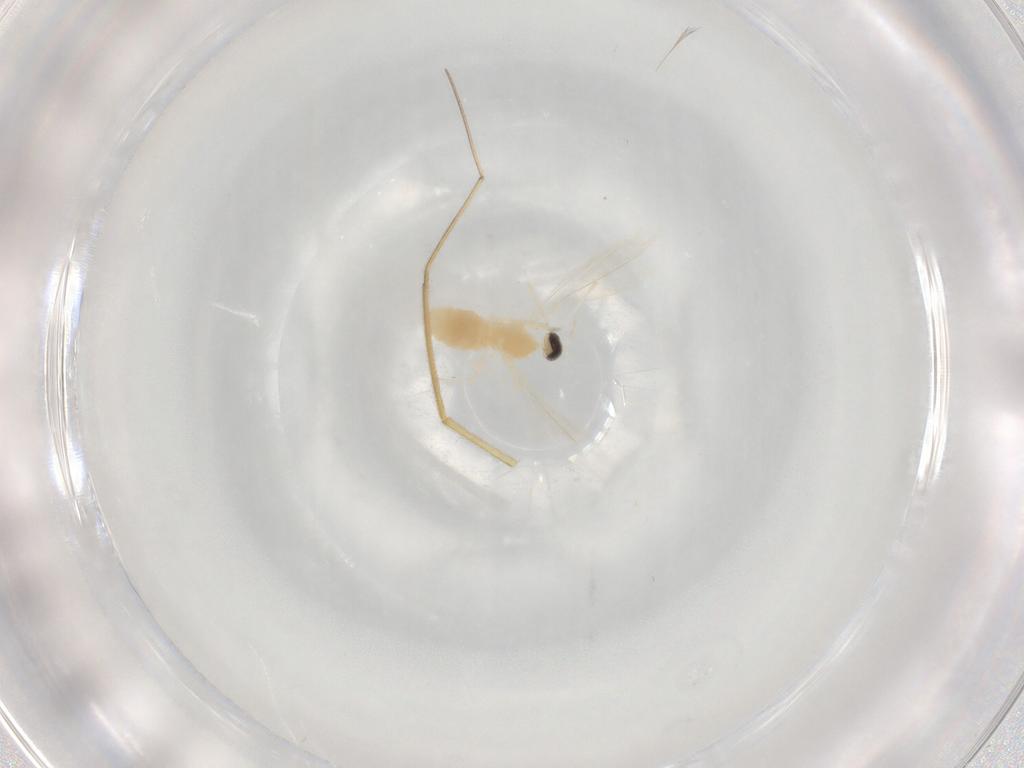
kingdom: Animalia
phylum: Arthropoda
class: Insecta
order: Diptera
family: Cecidomyiidae
